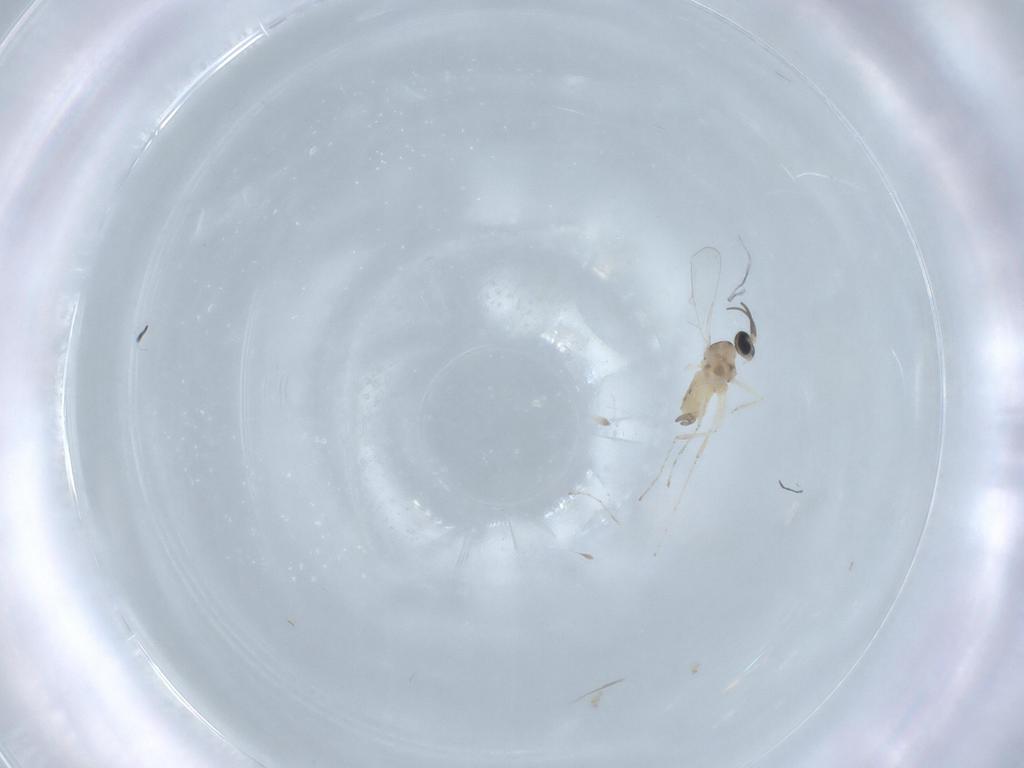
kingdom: Animalia
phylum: Arthropoda
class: Insecta
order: Diptera
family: Cecidomyiidae
